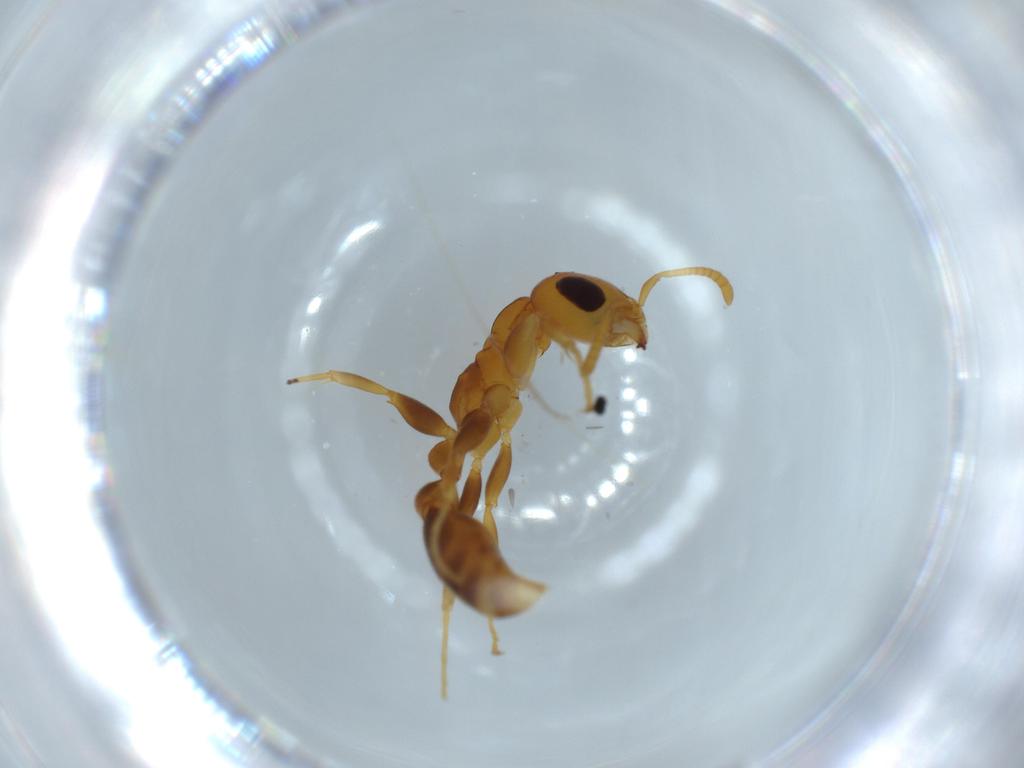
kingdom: Animalia
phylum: Arthropoda
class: Insecta
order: Hymenoptera
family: Formicidae
